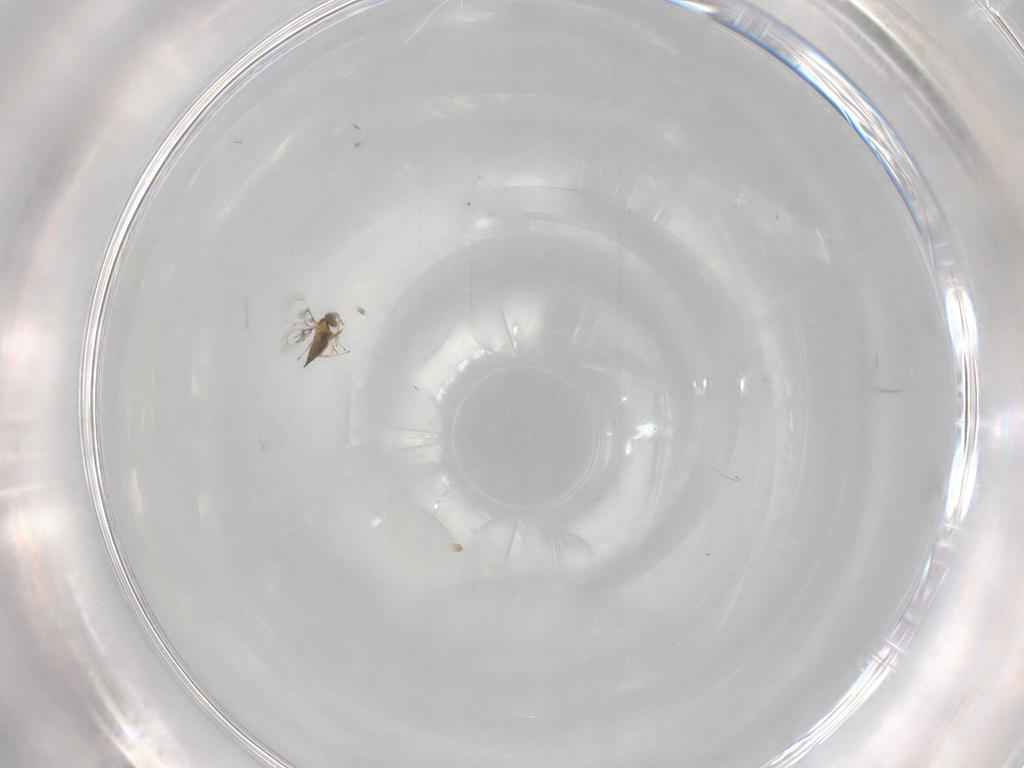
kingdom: Animalia
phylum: Arthropoda
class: Insecta
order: Hymenoptera
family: Trichogrammatidae
